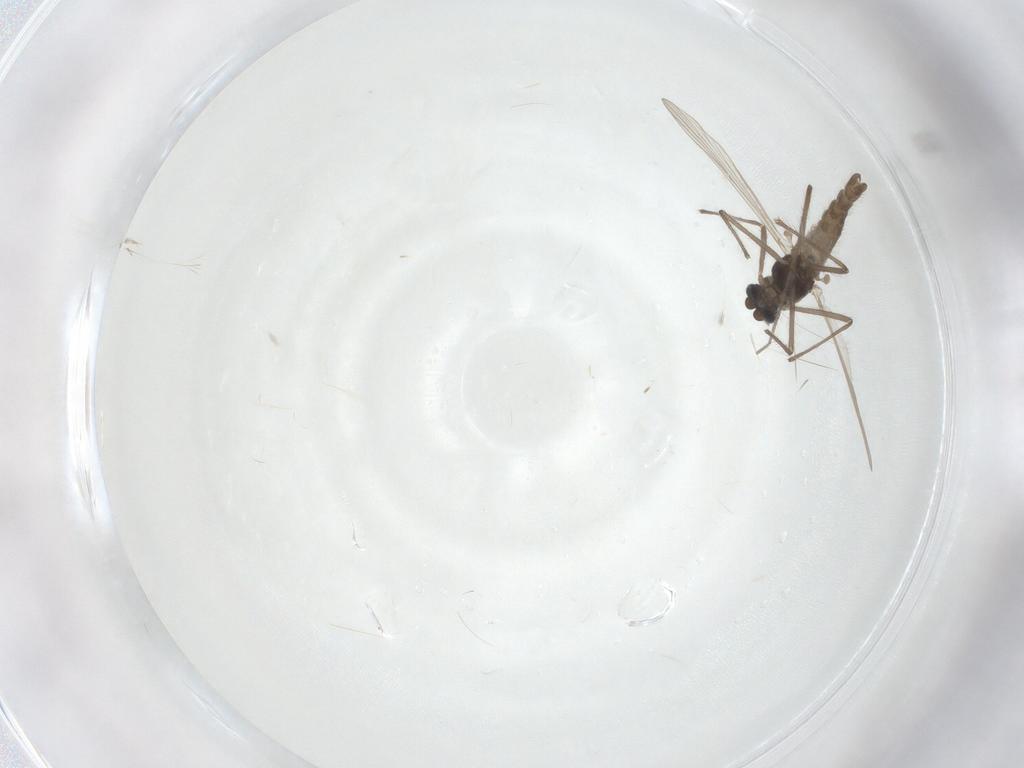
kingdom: Animalia
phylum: Arthropoda
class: Insecta
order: Diptera
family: Chironomidae
